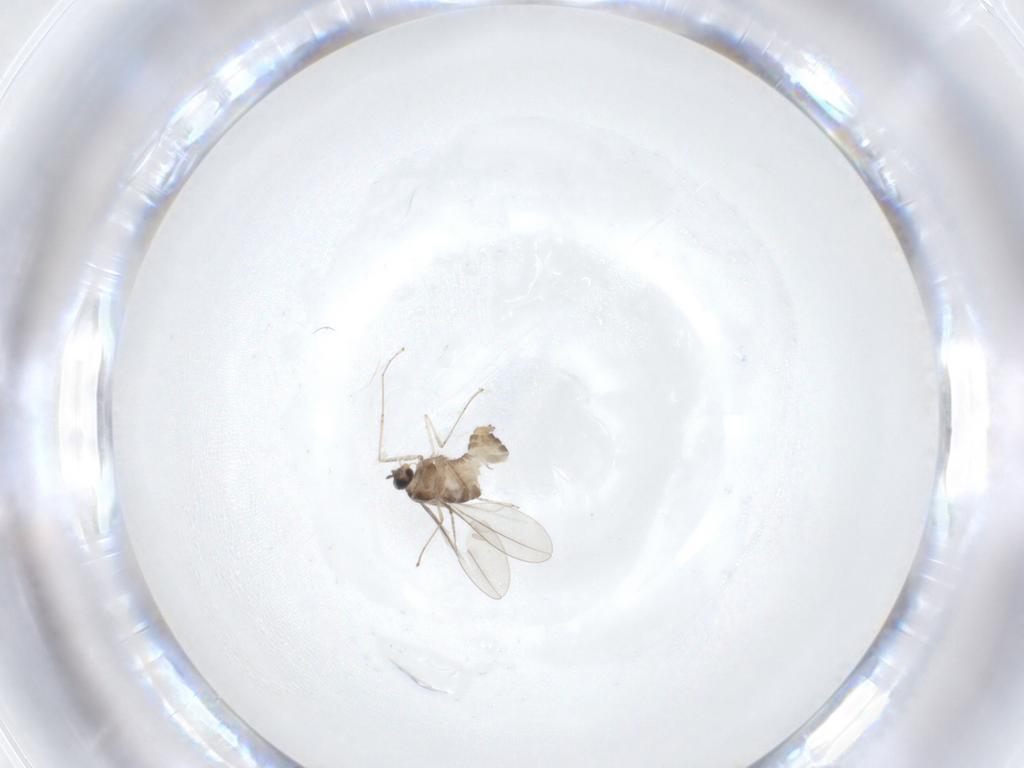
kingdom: Animalia
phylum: Arthropoda
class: Insecta
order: Diptera
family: Cecidomyiidae
